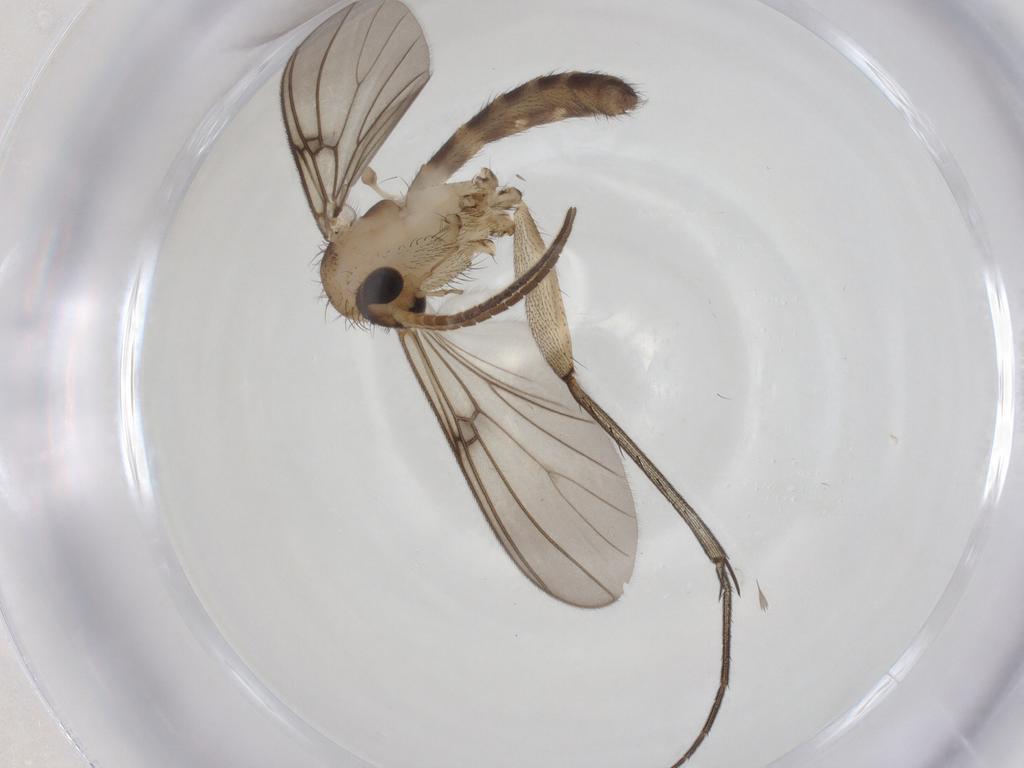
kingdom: Animalia
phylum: Arthropoda
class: Insecta
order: Diptera
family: Mycetophilidae
